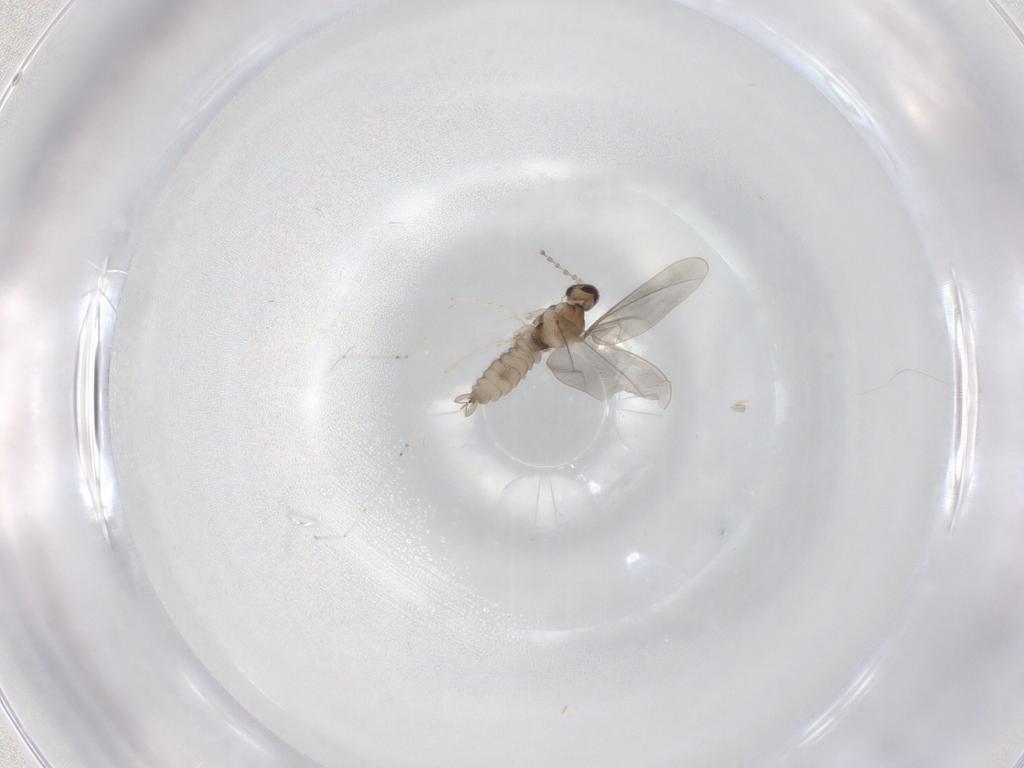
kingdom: Animalia
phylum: Arthropoda
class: Insecta
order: Diptera
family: Cecidomyiidae
